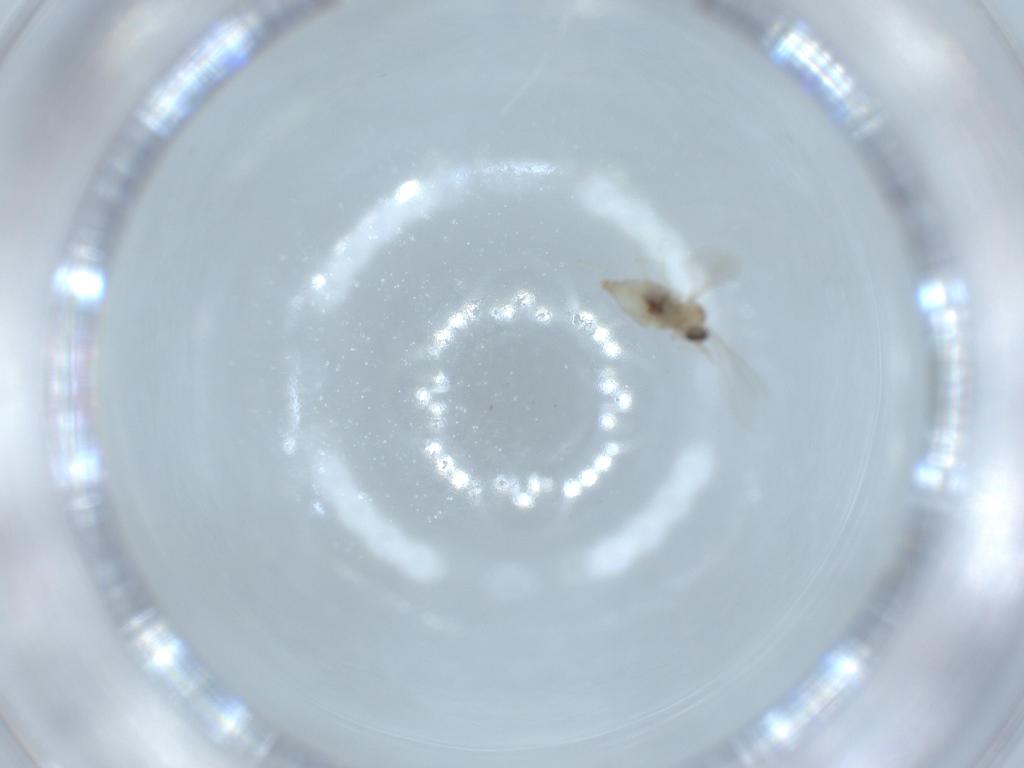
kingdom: Animalia
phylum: Arthropoda
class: Insecta
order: Diptera
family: Cecidomyiidae
